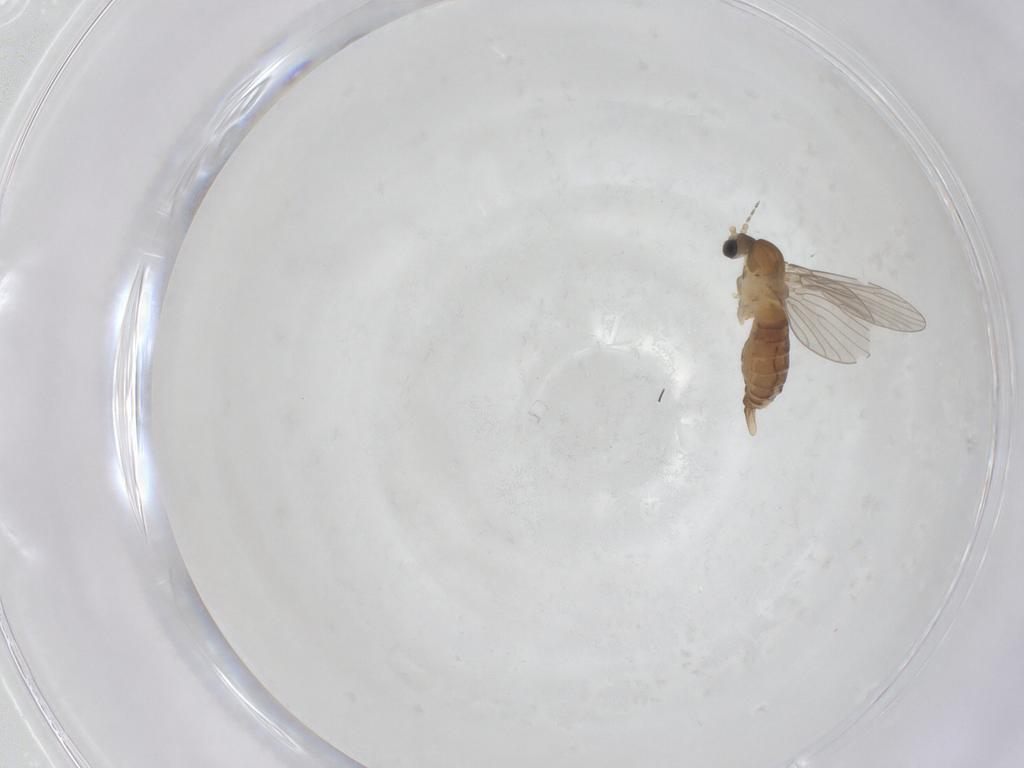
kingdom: Animalia
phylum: Arthropoda
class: Insecta
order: Diptera
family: Psychodidae
